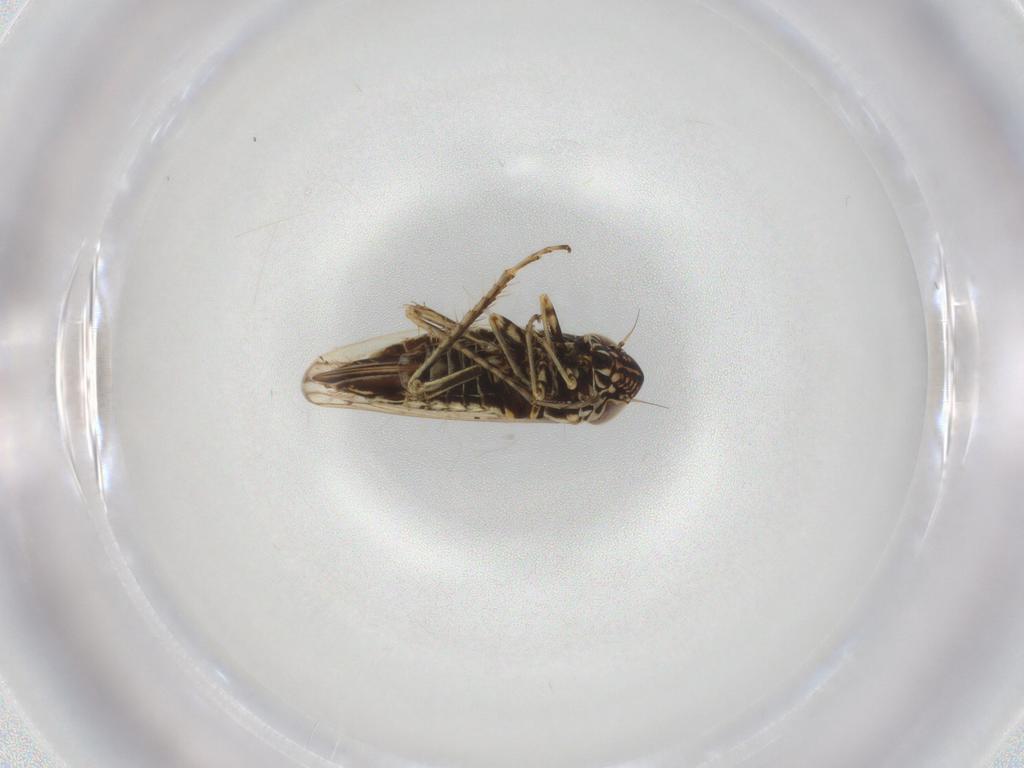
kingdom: Animalia
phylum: Arthropoda
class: Insecta
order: Hemiptera
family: Cicadellidae
